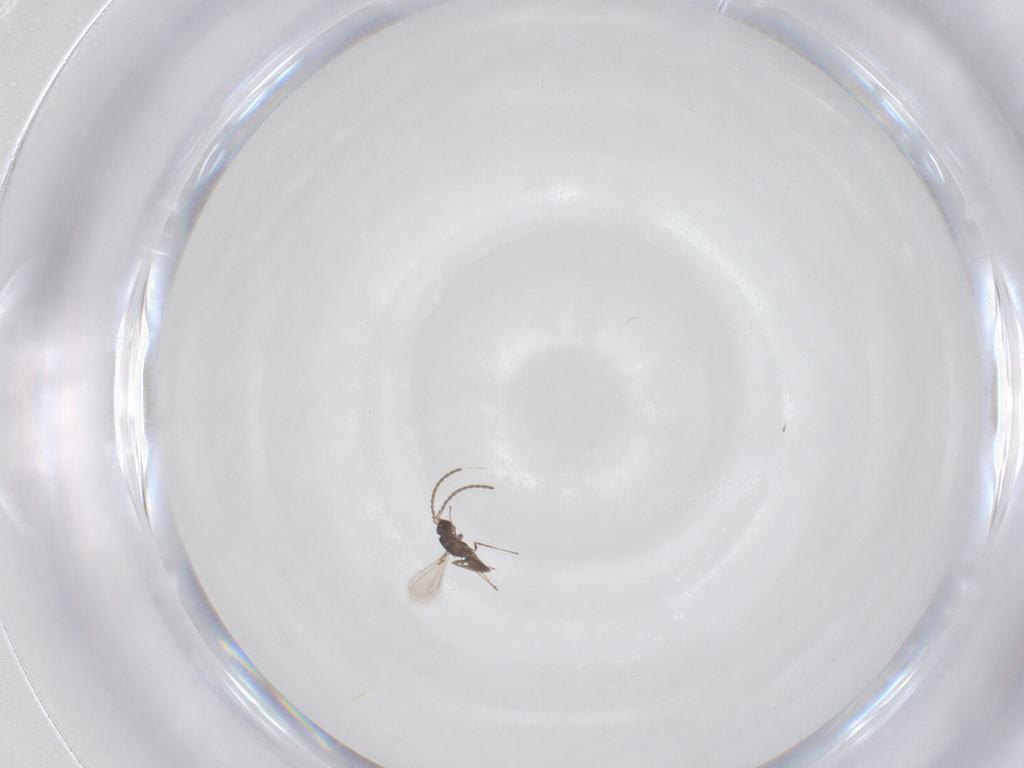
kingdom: Animalia
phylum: Arthropoda
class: Insecta
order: Hymenoptera
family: Mymaridae
